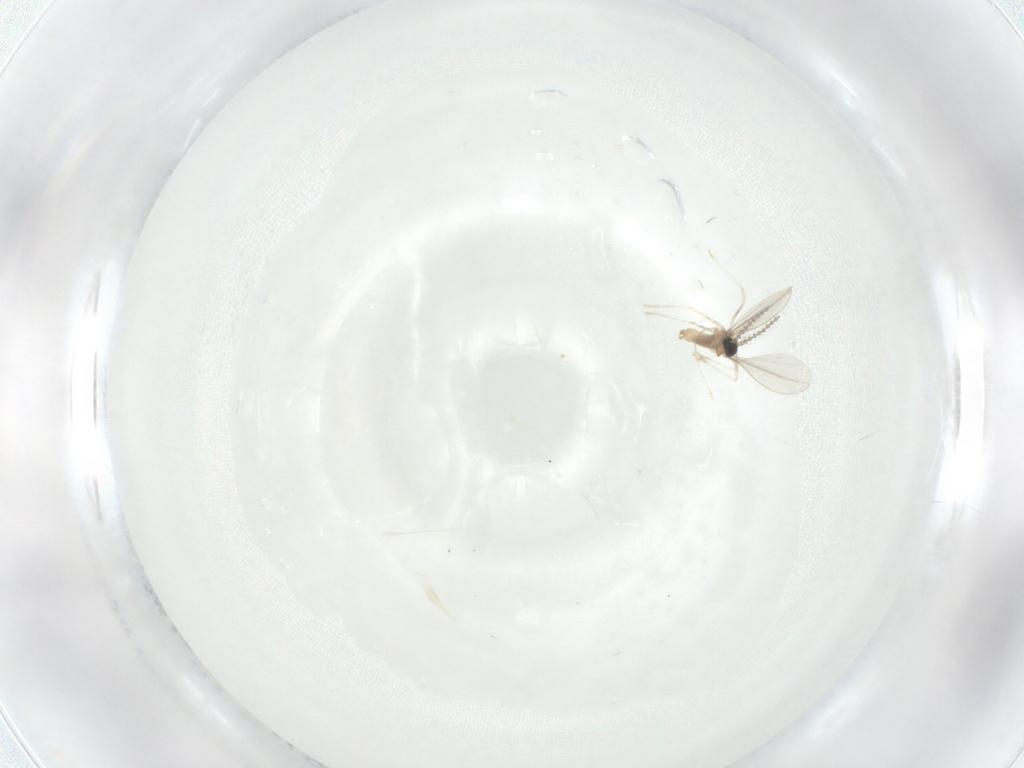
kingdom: Animalia
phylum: Arthropoda
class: Insecta
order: Diptera
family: Cecidomyiidae
